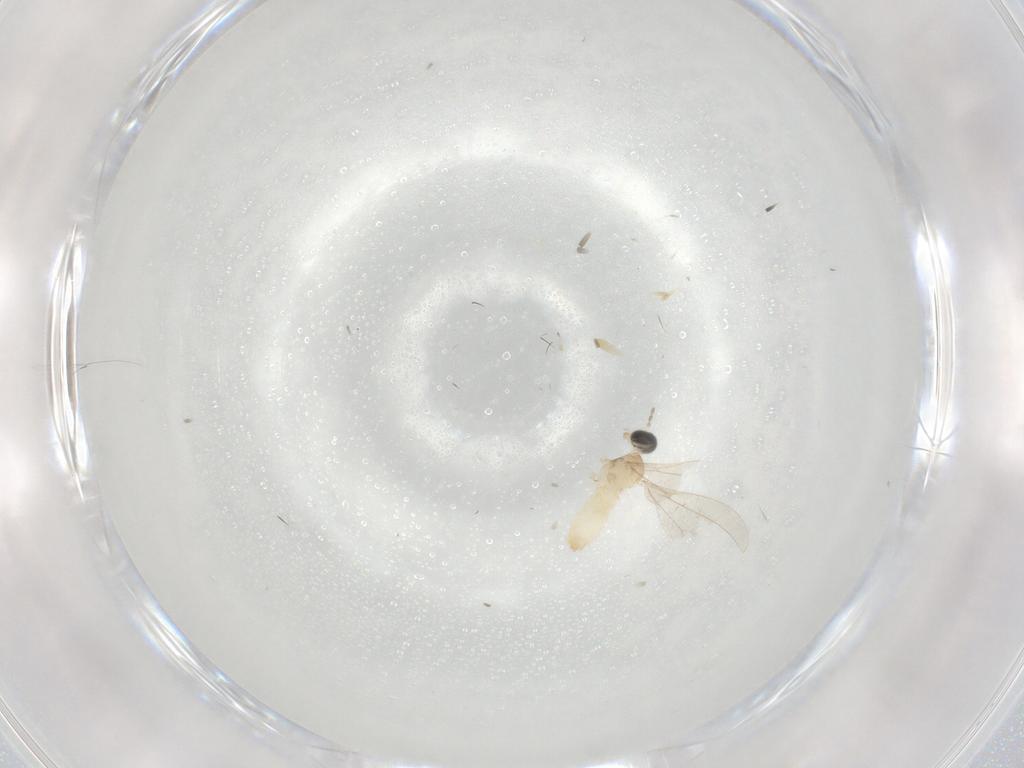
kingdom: Animalia
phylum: Arthropoda
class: Insecta
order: Diptera
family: Cecidomyiidae
